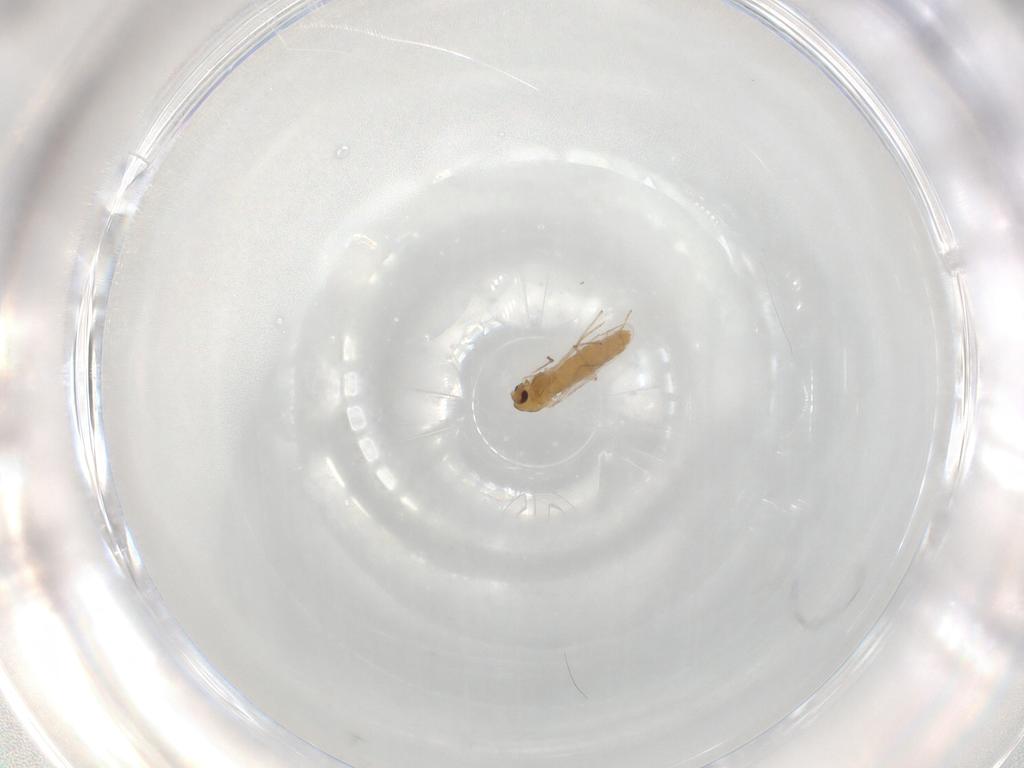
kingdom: Animalia
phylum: Arthropoda
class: Insecta
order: Diptera
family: Chironomidae
